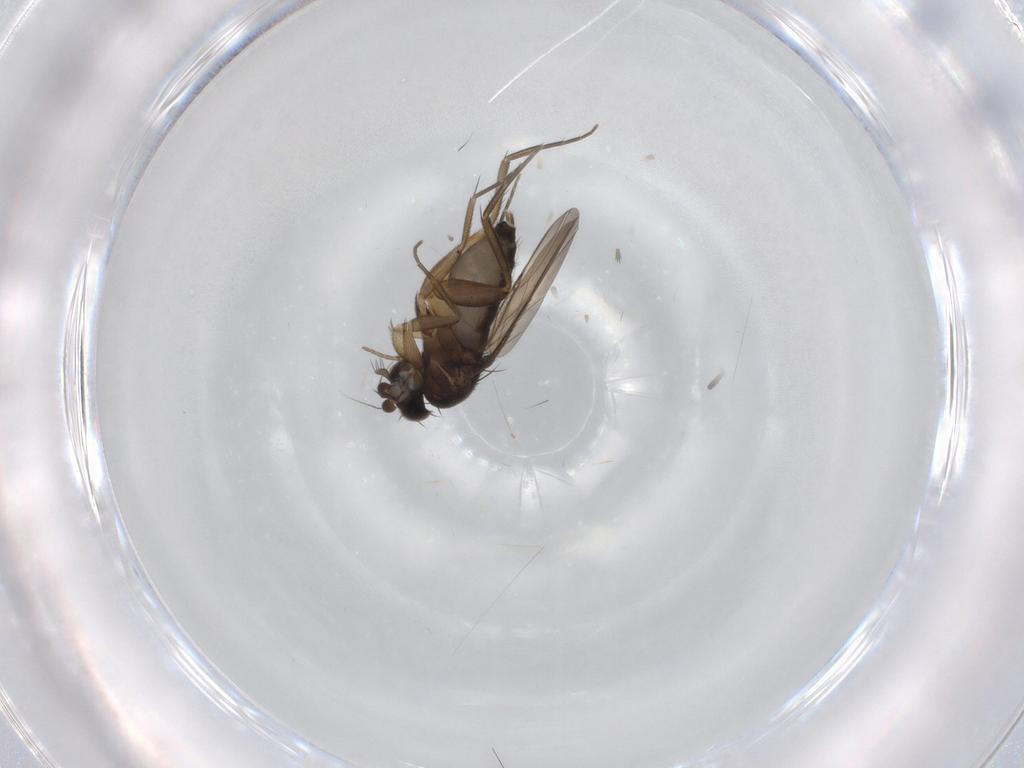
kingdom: Animalia
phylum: Arthropoda
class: Insecta
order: Diptera
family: Phoridae
